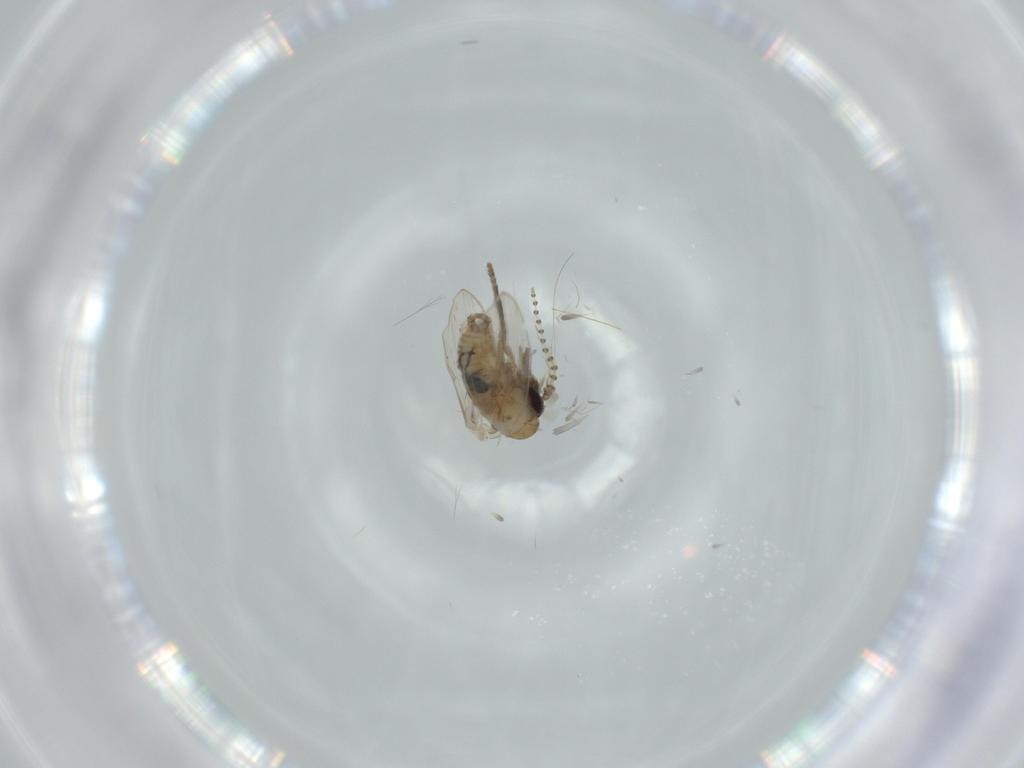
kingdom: Animalia
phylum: Arthropoda
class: Insecta
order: Diptera
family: Psychodidae
